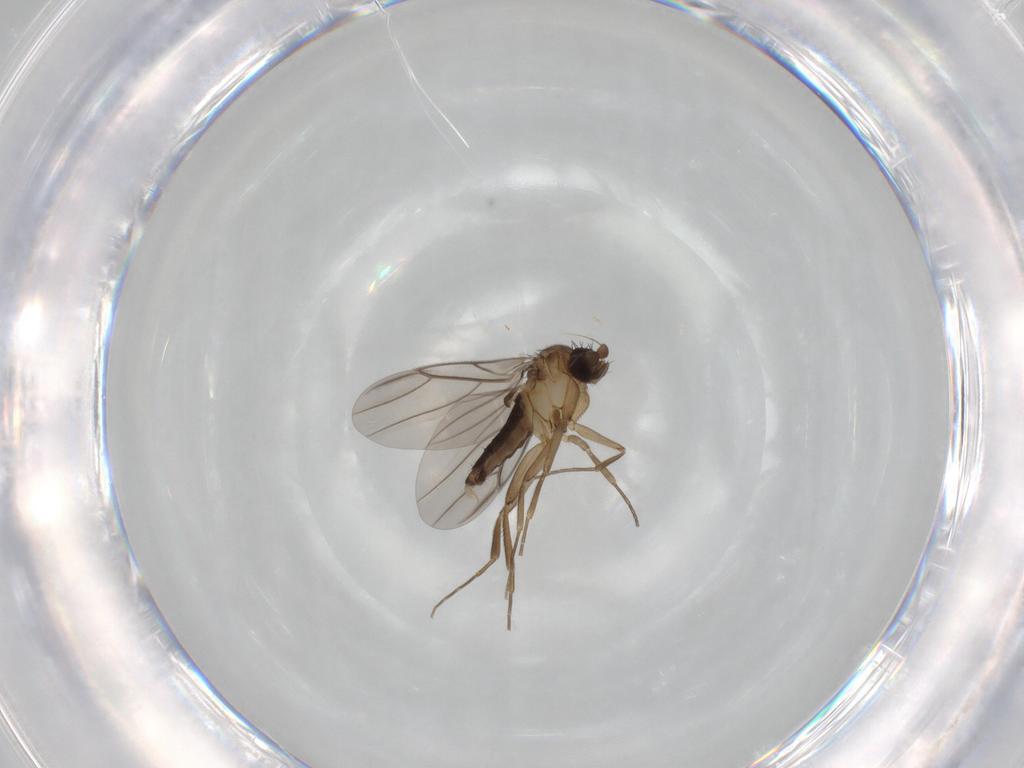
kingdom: Animalia
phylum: Arthropoda
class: Insecta
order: Diptera
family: Phoridae
